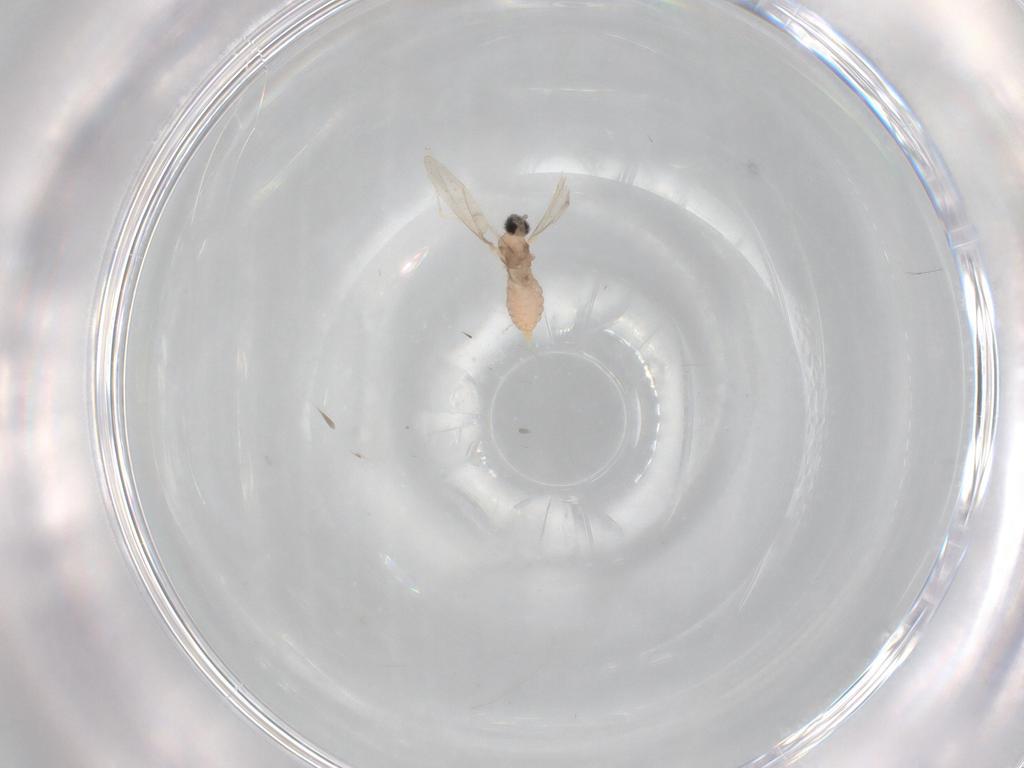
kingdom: Animalia
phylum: Arthropoda
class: Insecta
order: Diptera
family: Cecidomyiidae
